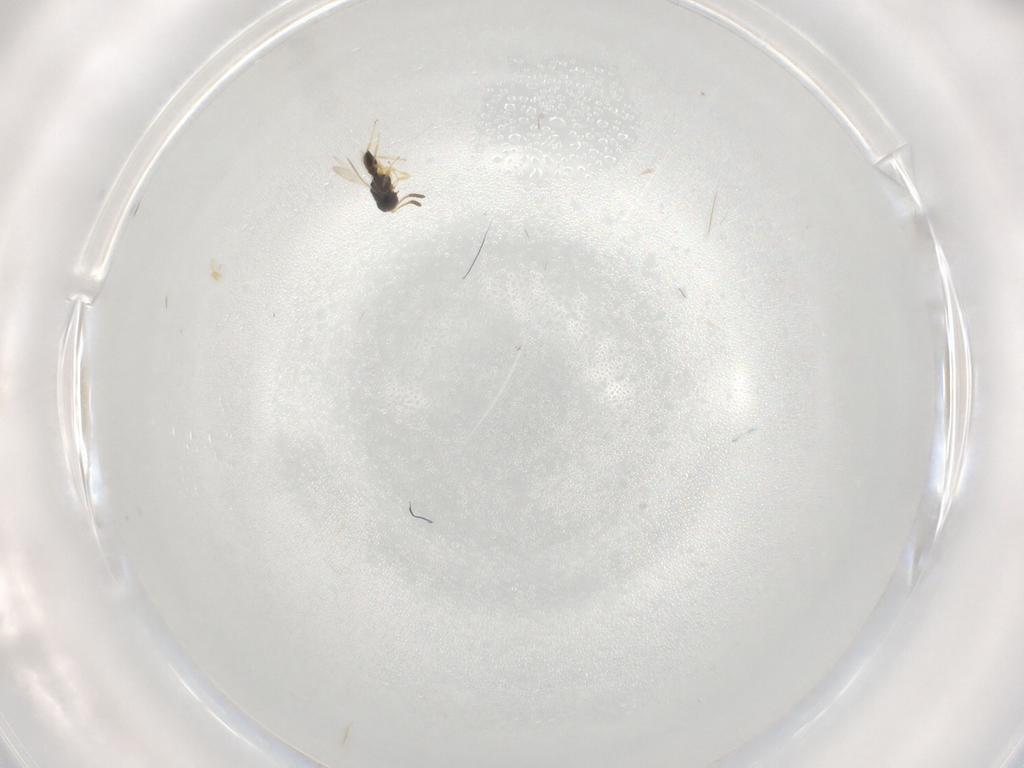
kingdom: Animalia
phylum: Arthropoda
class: Insecta
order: Hymenoptera
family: Scelionidae
